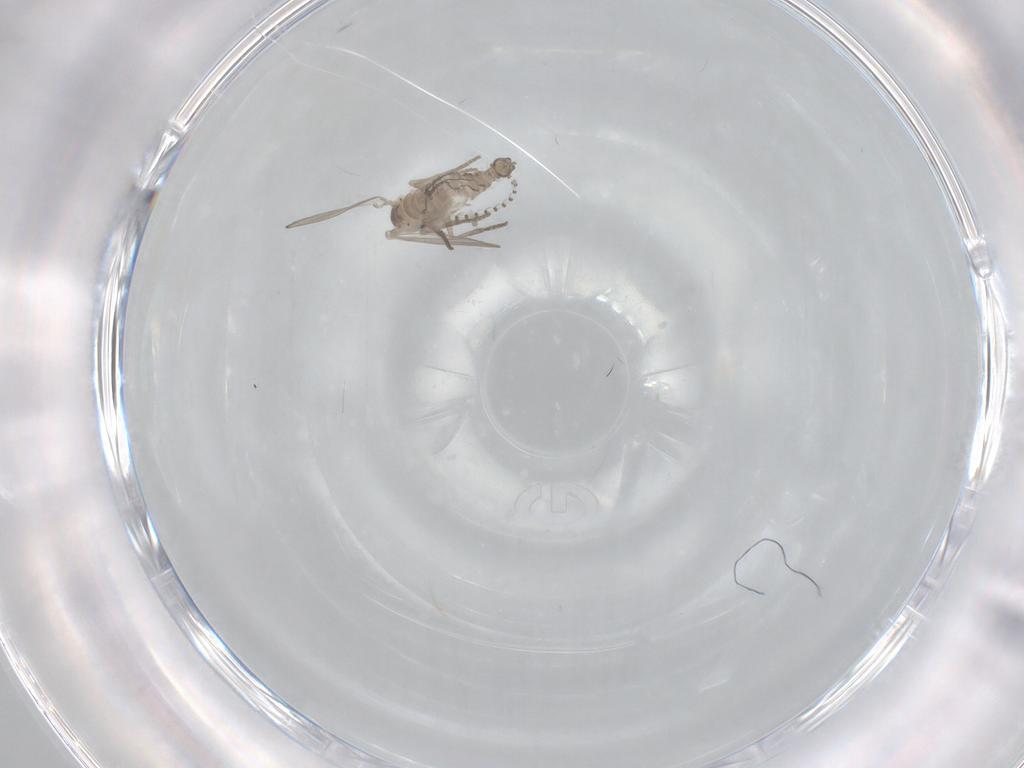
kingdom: Animalia
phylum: Arthropoda
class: Insecta
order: Diptera
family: Psychodidae
